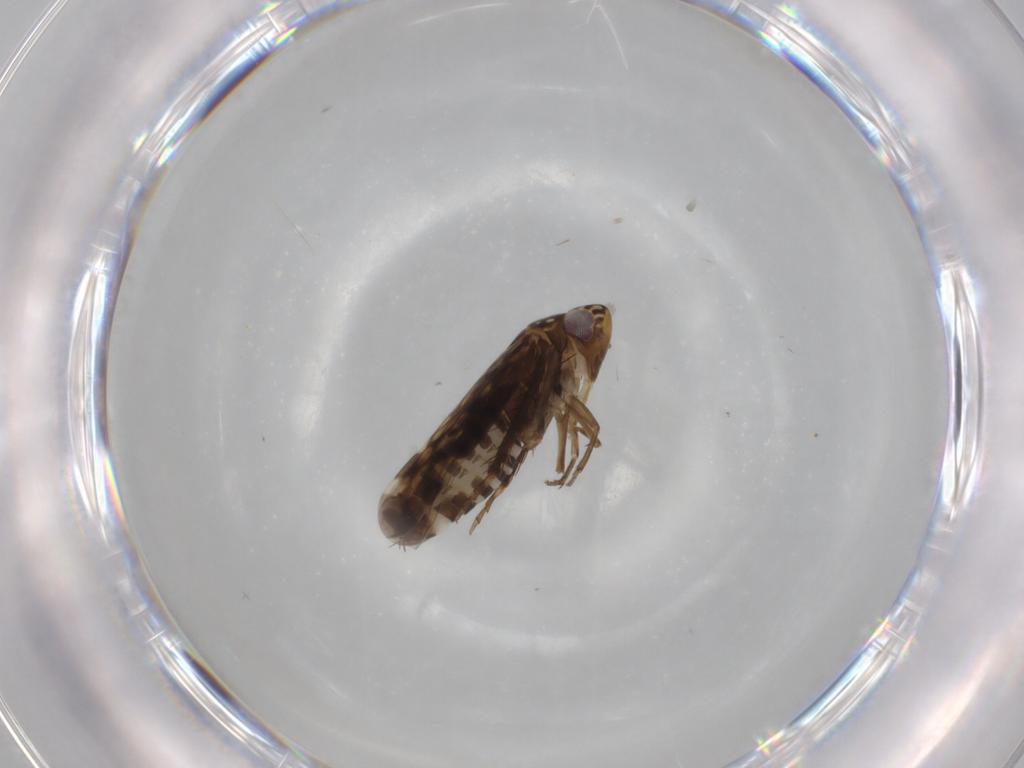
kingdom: Animalia
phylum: Arthropoda
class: Insecta
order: Hemiptera
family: Cicadellidae
